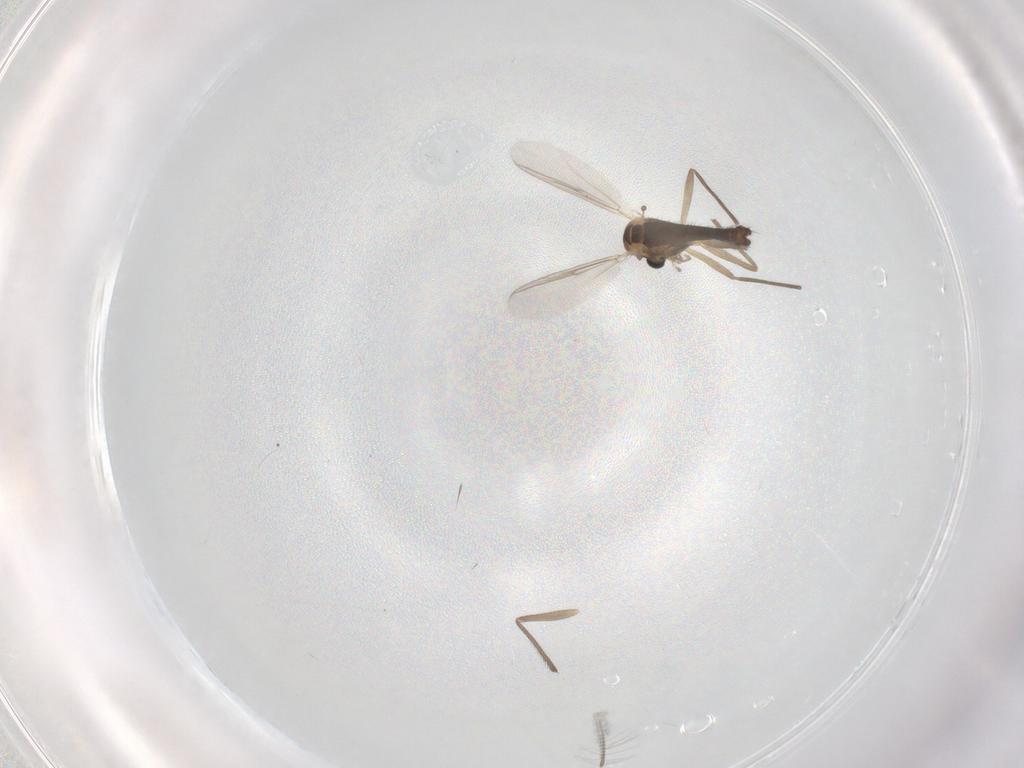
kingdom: Animalia
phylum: Arthropoda
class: Insecta
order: Diptera
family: Chironomidae
